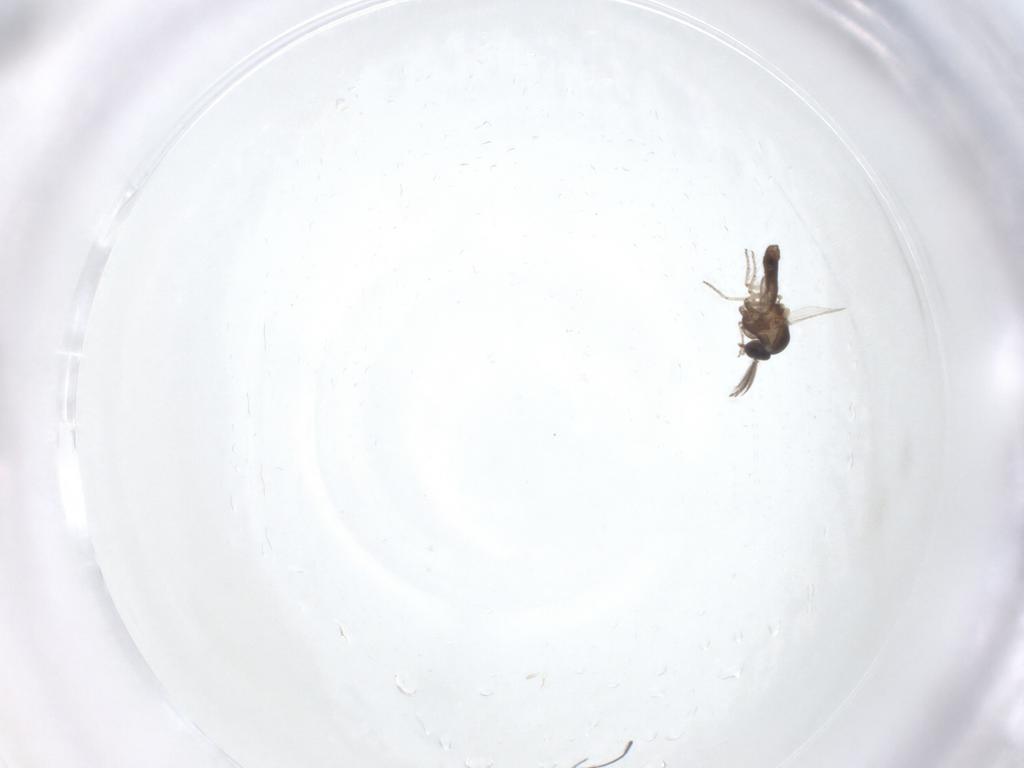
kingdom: Animalia
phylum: Arthropoda
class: Insecta
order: Diptera
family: Ceratopogonidae
